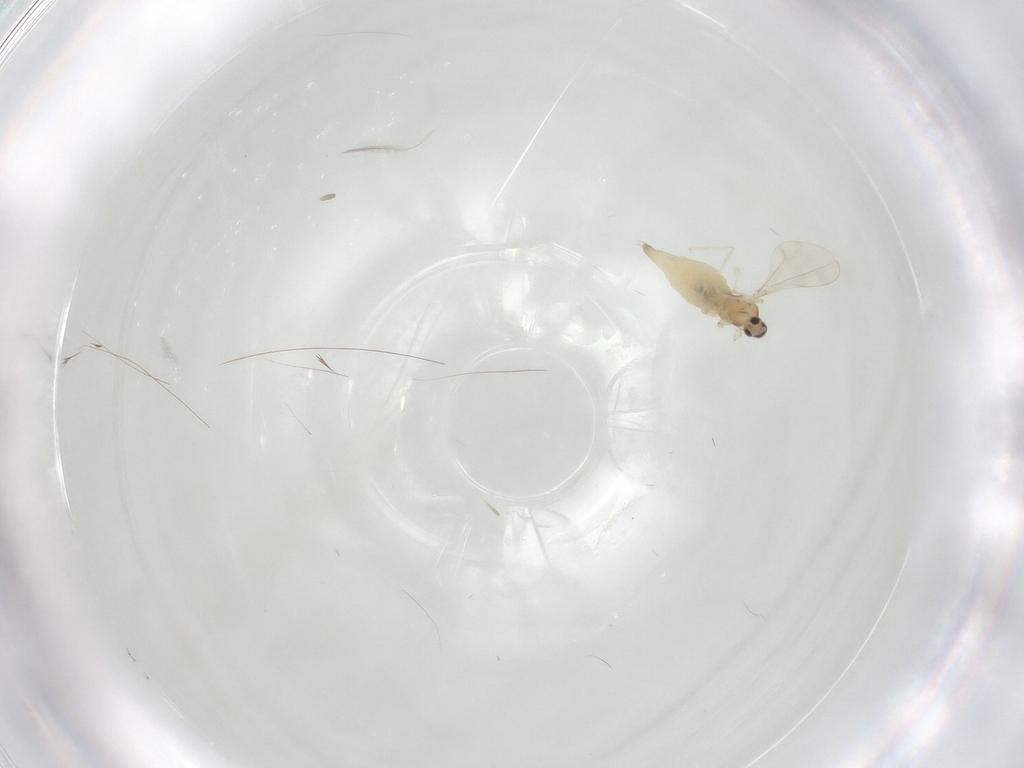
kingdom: Animalia
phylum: Arthropoda
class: Insecta
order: Diptera
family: Cecidomyiidae
